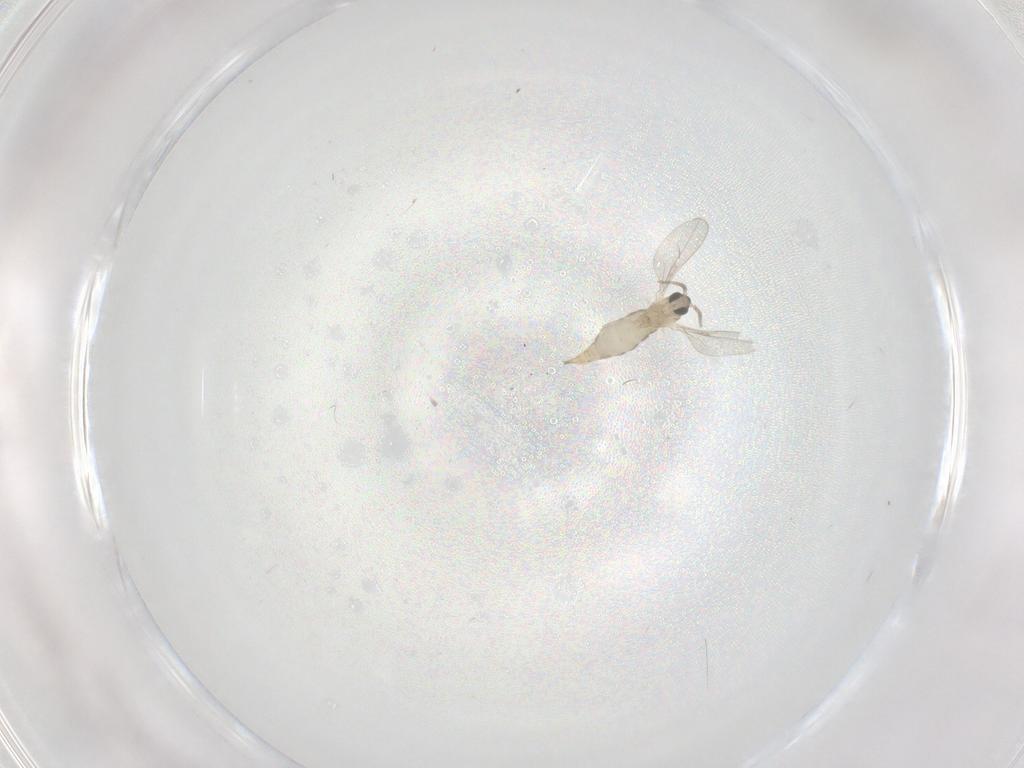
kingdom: Animalia
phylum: Arthropoda
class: Insecta
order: Diptera
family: Cecidomyiidae
